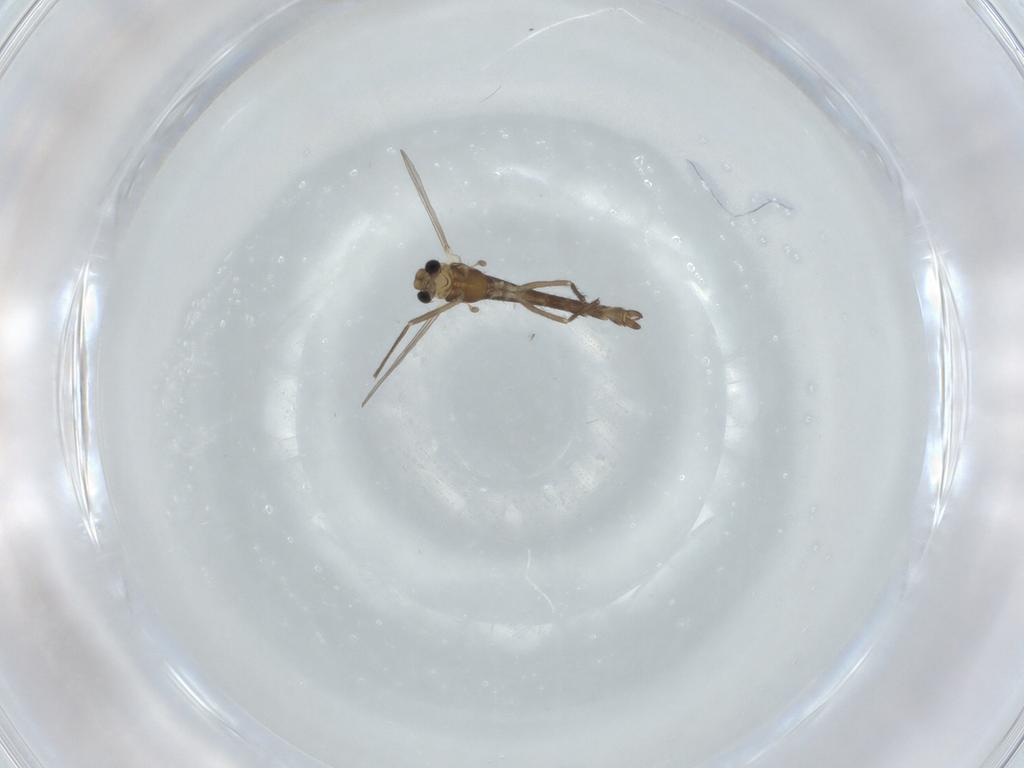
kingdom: Animalia
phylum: Arthropoda
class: Insecta
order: Diptera
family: Chironomidae
